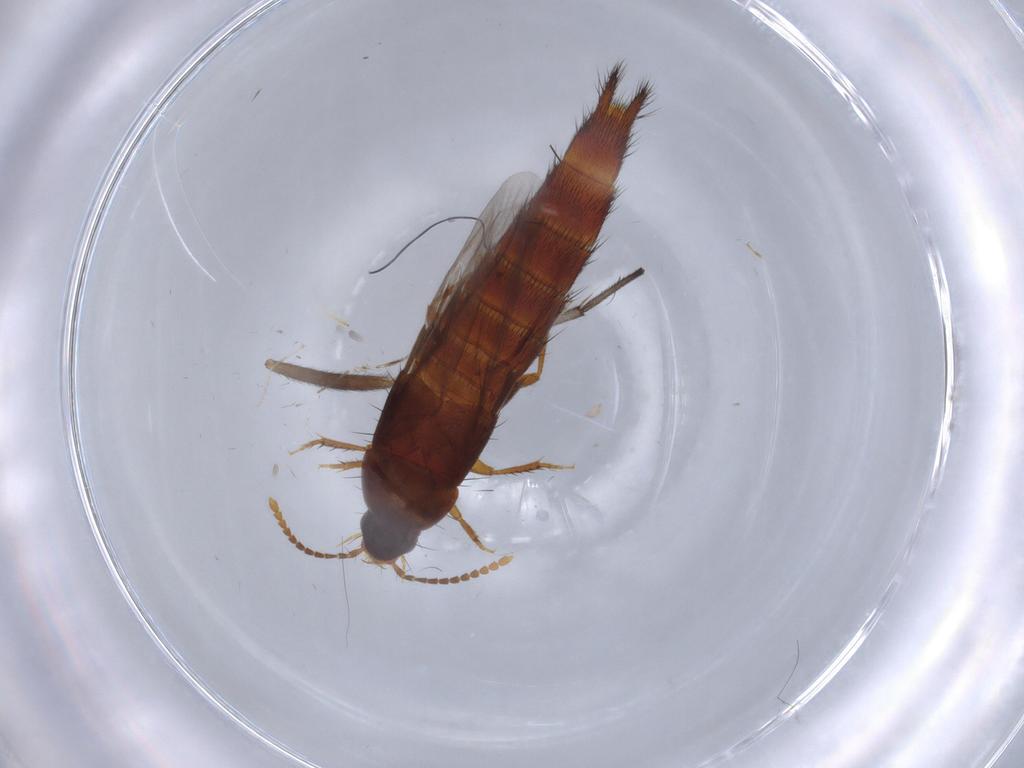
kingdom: Animalia
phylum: Arthropoda
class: Insecta
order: Coleoptera
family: Staphylinidae
